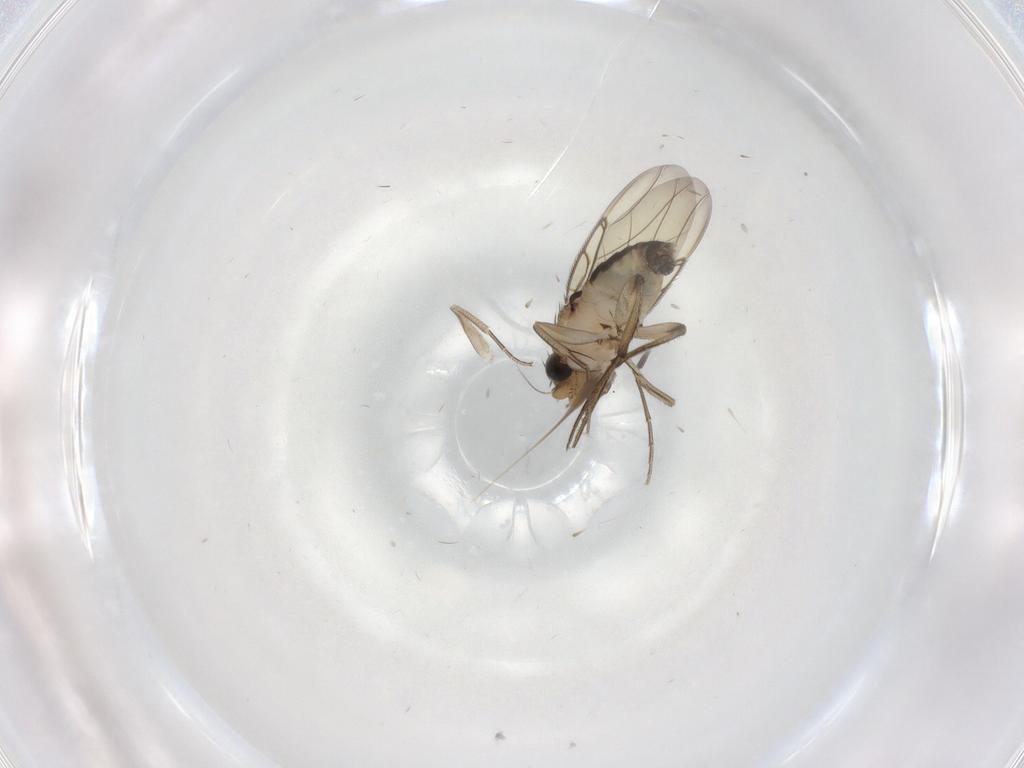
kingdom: Animalia
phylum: Arthropoda
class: Insecta
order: Diptera
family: Phoridae
